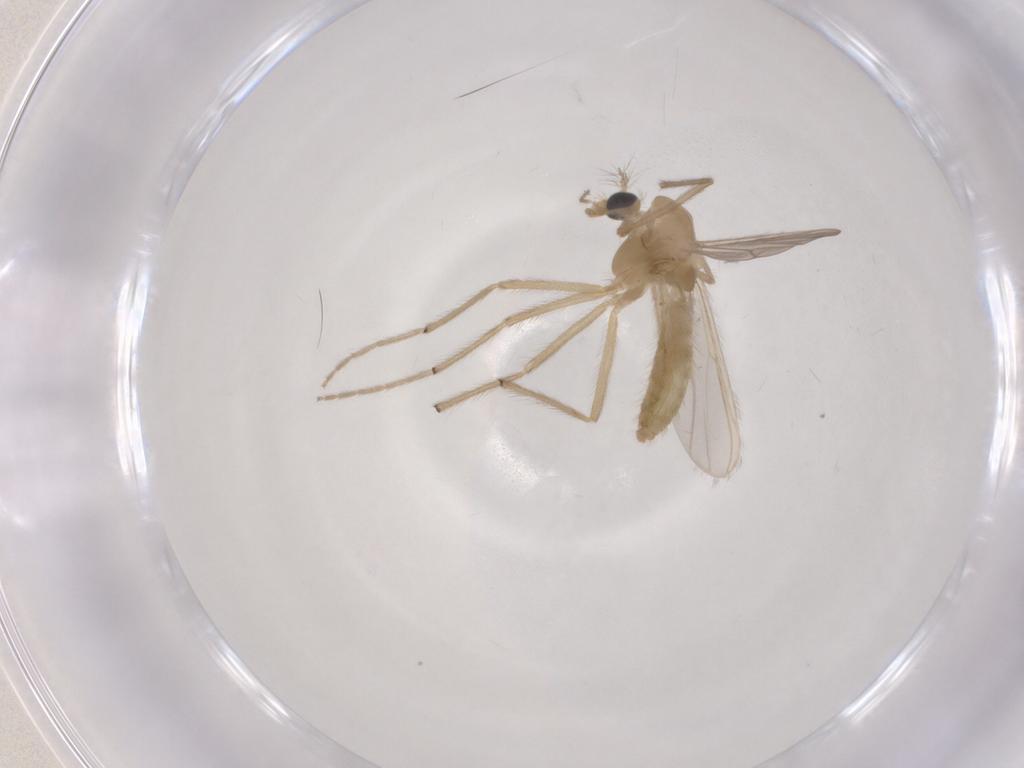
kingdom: Animalia
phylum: Arthropoda
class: Insecta
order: Diptera
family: Chironomidae
